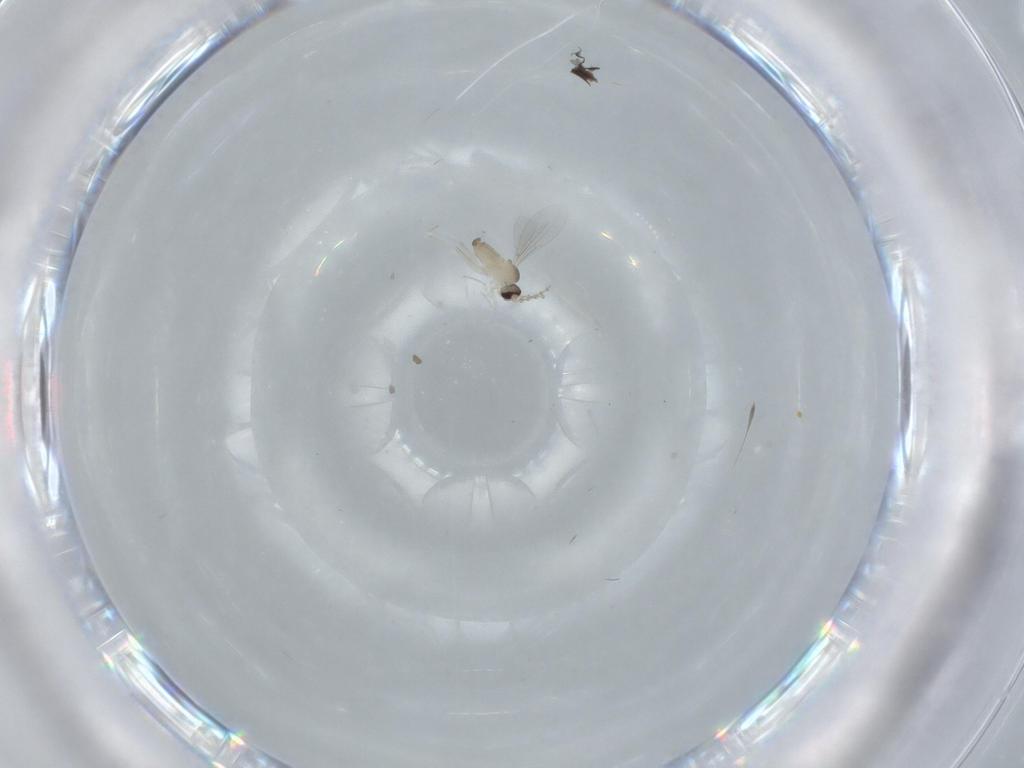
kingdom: Animalia
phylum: Arthropoda
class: Insecta
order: Diptera
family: Cecidomyiidae
